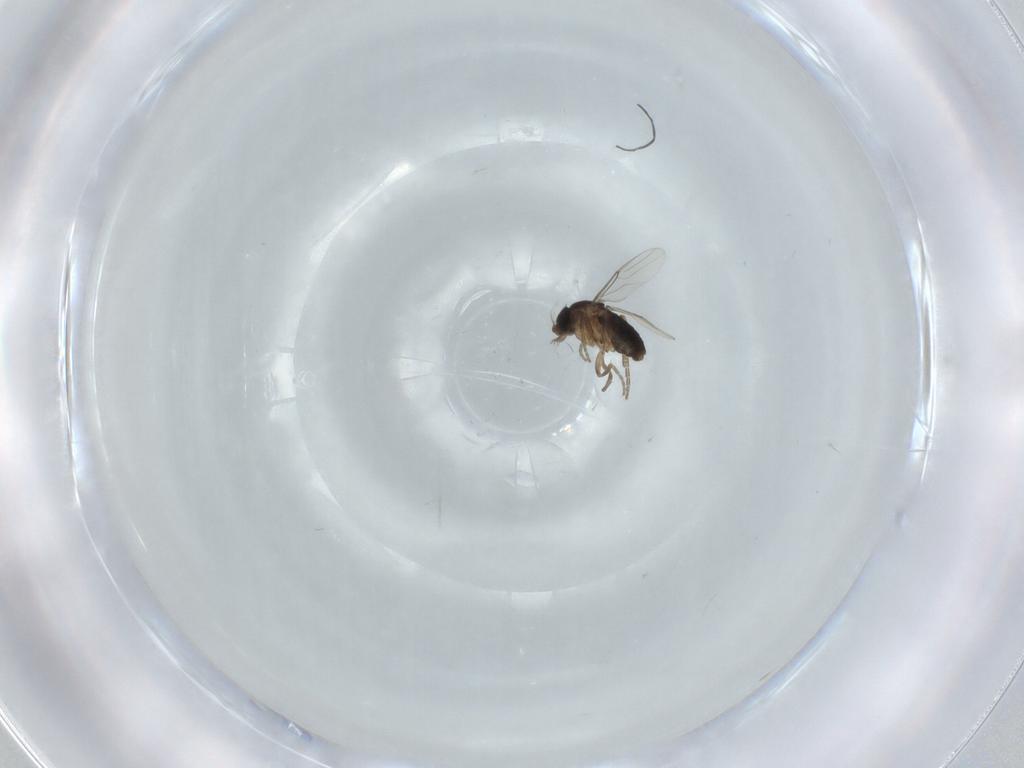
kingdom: Animalia
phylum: Arthropoda
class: Insecta
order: Diptera
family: Phoridae
